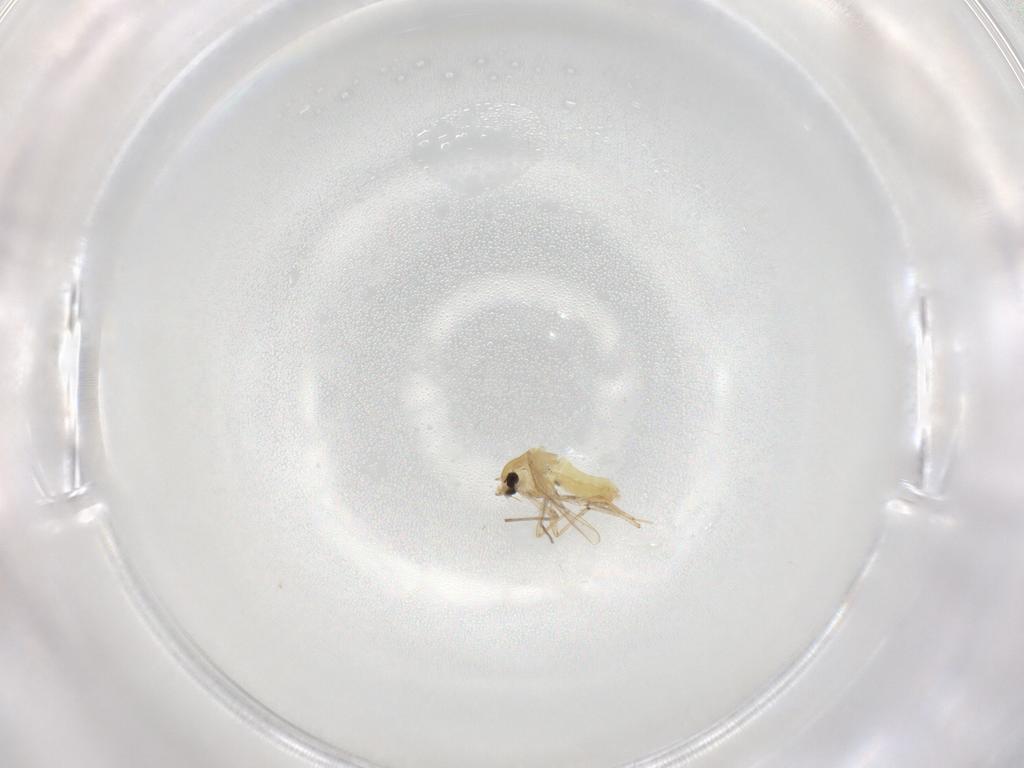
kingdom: Animalia
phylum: Arthropoda
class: Insecta
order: Diptera
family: Chironomidae
